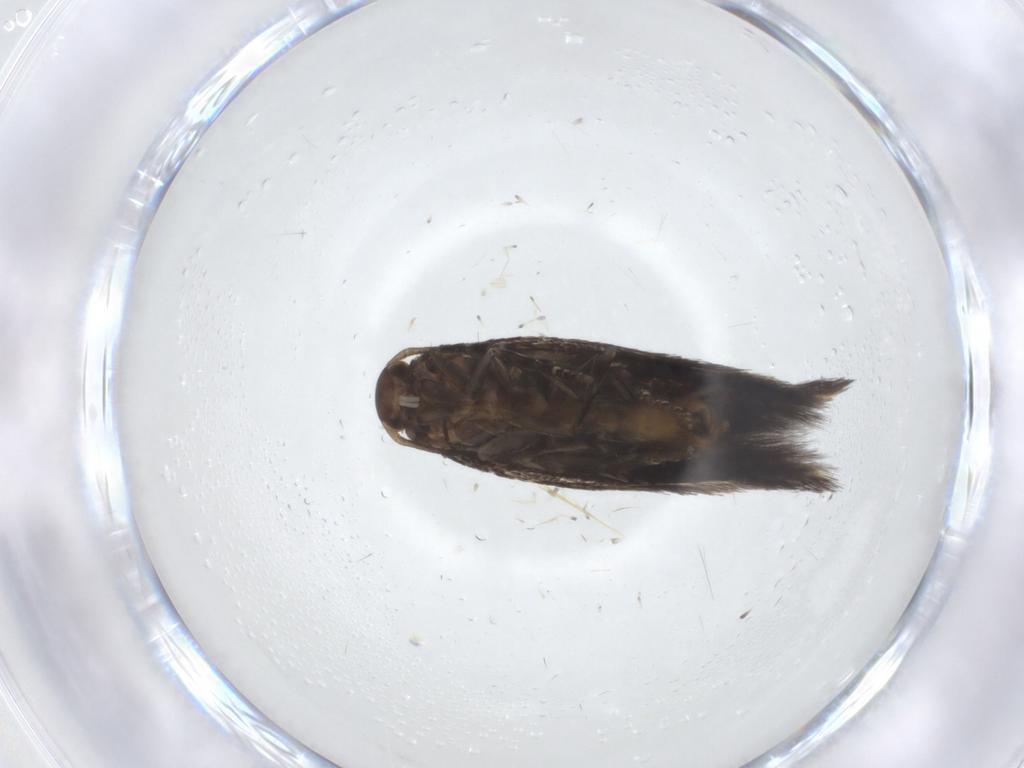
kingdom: Animalia
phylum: Arthropoda
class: Insecta
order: Lepidoptera
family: Elachistidae
